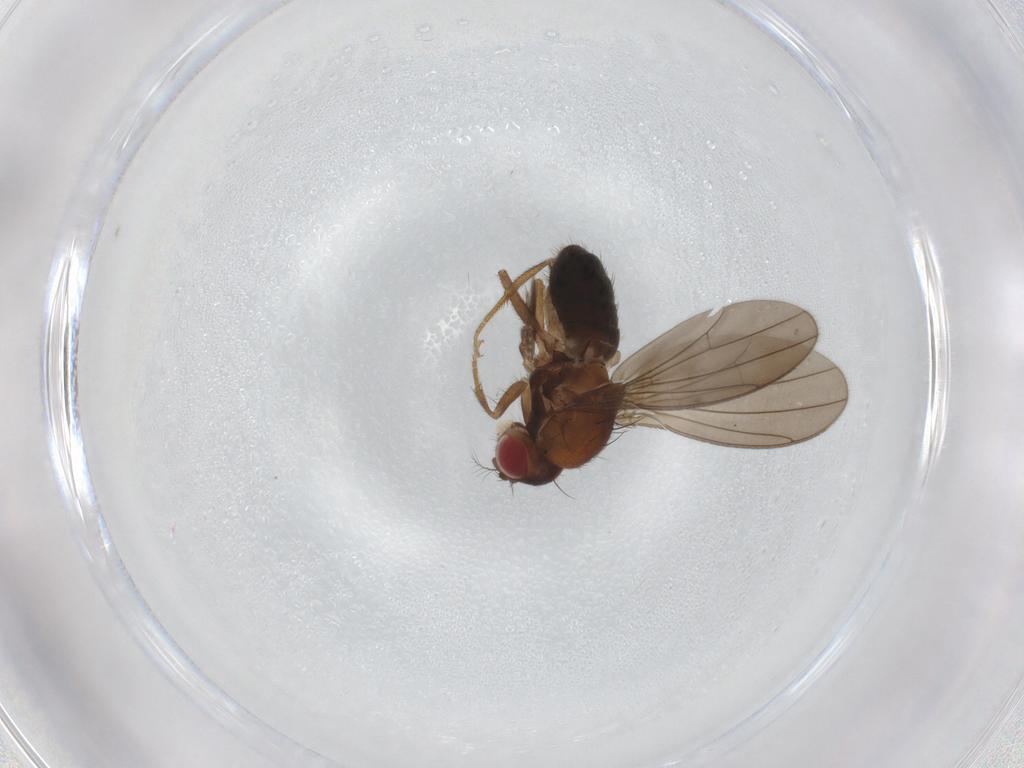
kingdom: Animalia
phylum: Arthropoda
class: Insecta
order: Diptera
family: Drosophilidae
